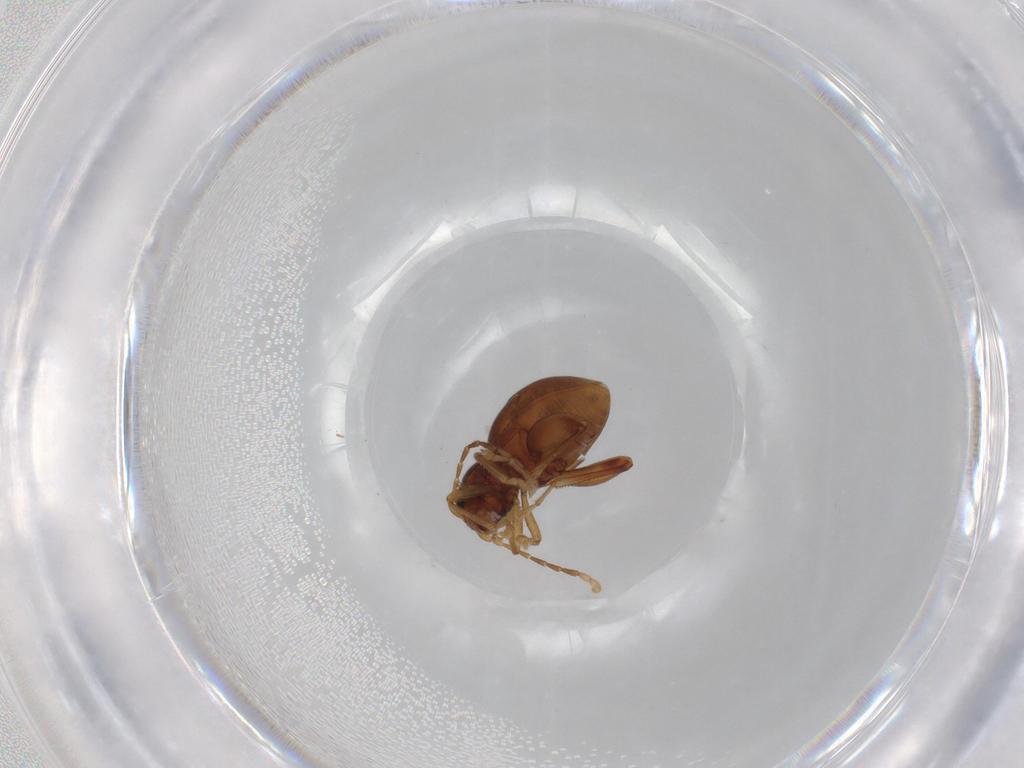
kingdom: Animalia
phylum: Arthropoda
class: Insecta
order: Coleoptera
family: Chrysomelidae
